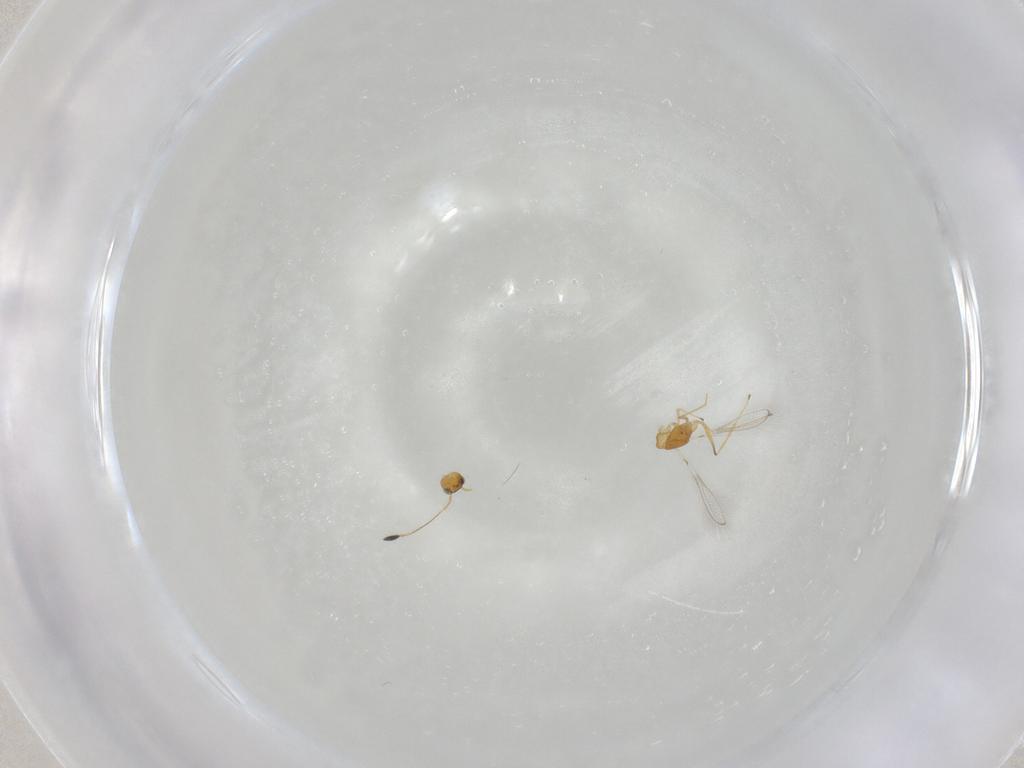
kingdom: Animalia
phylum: Arthropoda
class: Insecta
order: Hymenoptera
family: Mymaridae
